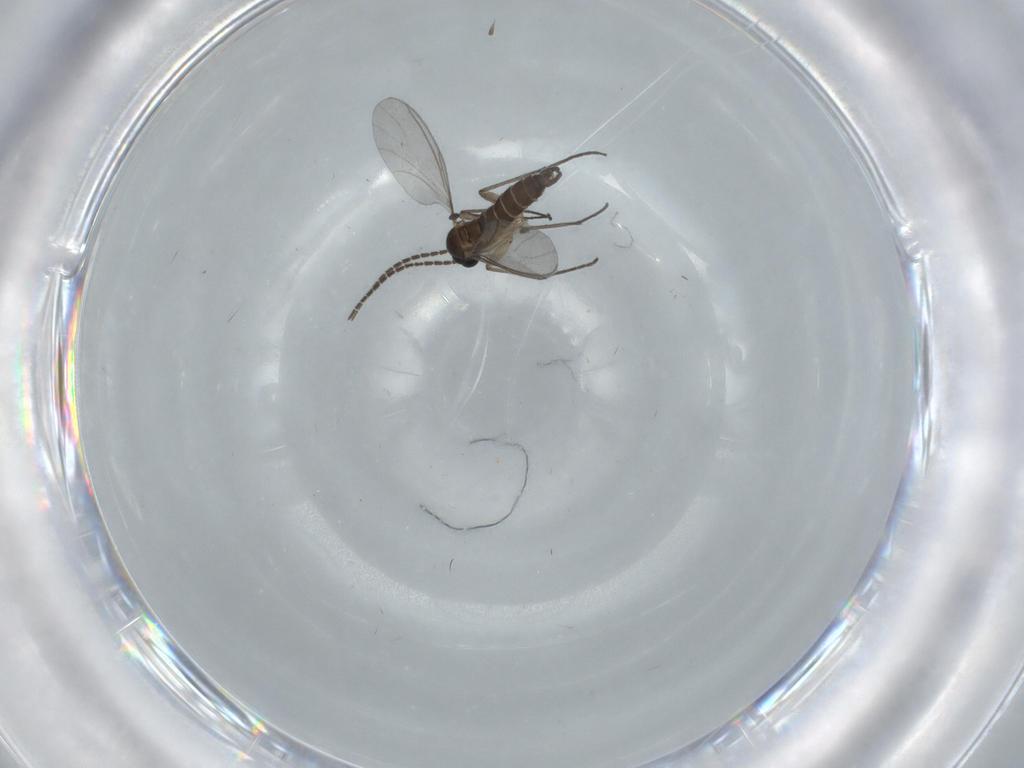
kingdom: Animalia
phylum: Arthropoda
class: Insecta
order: Diptera
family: Sciaridae
